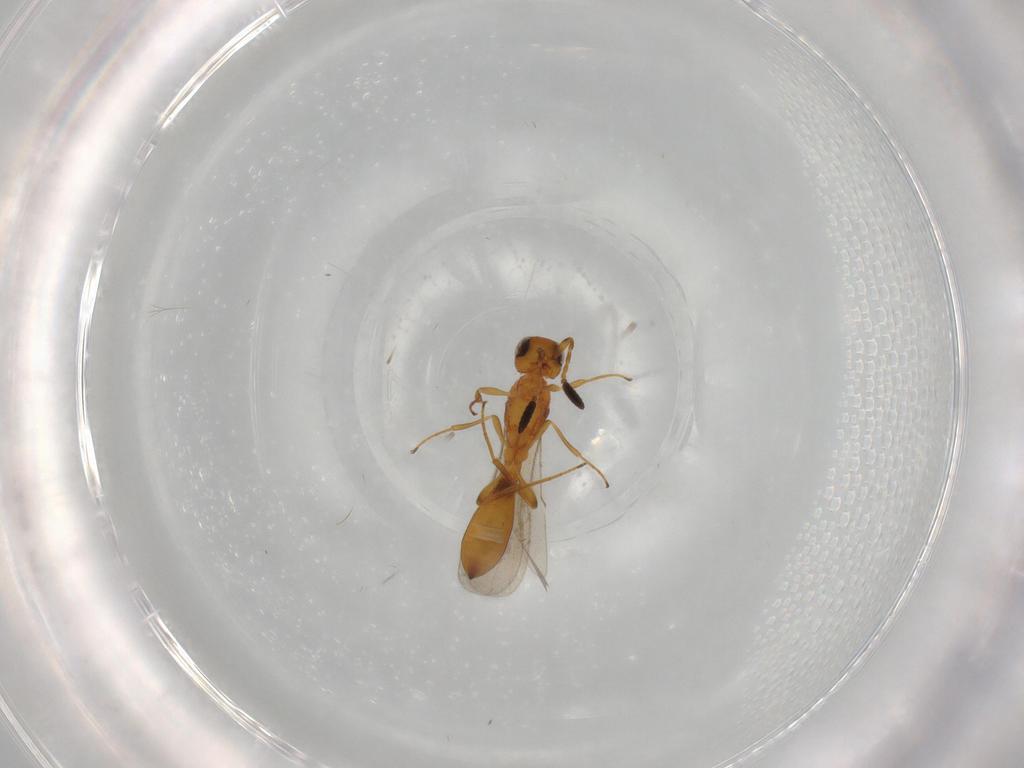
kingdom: Animalia
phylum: Arthropoda
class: Insecta
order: Hymenoptera
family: Scelionidae
